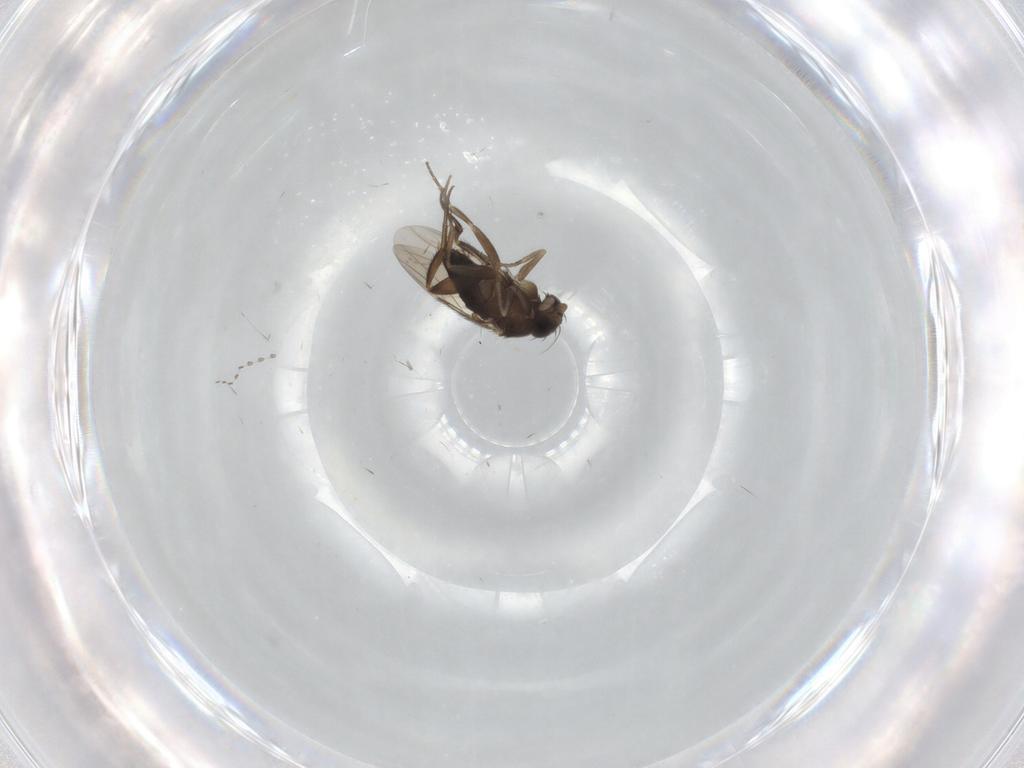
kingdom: Animalia
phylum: Arthropoda
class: Insecta
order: Diptera
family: Phoridae
